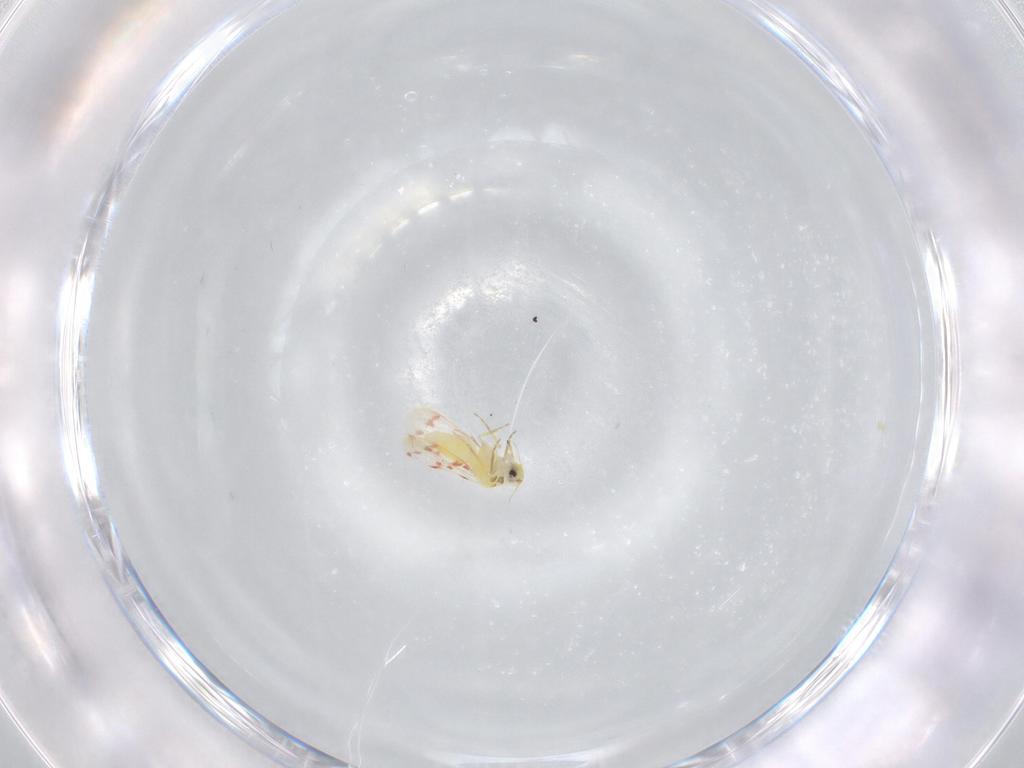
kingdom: Animalia
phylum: Arthropoda
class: Insecta
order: Hemiptera
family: Aleyrodidae
